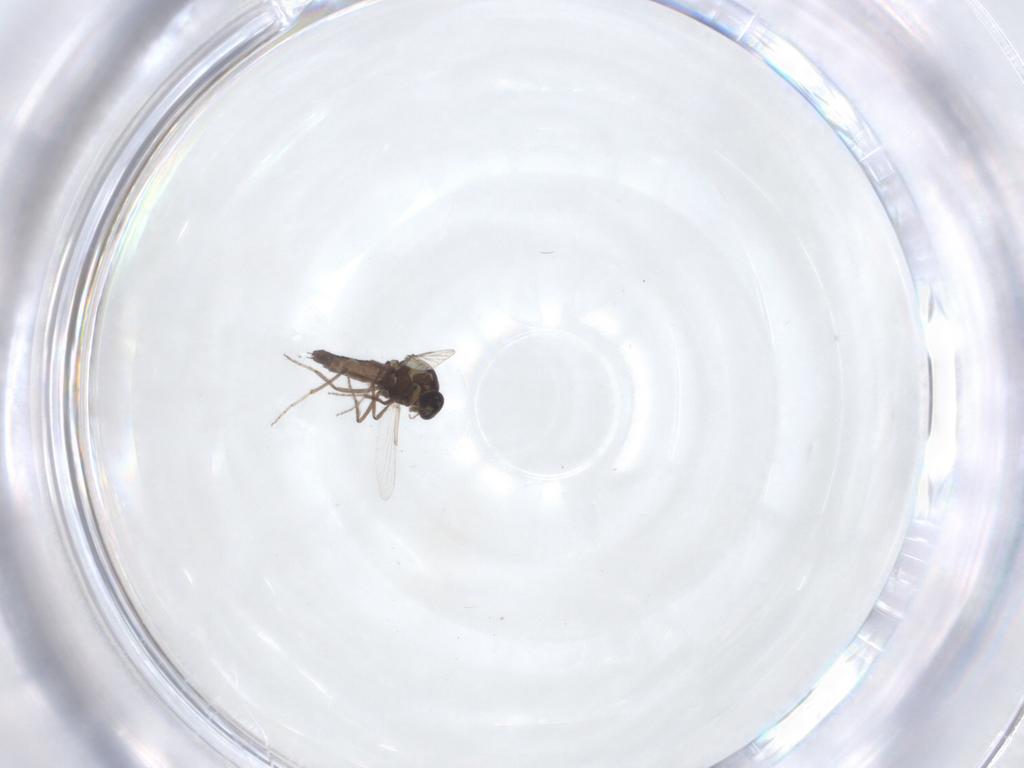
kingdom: Animalia
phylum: Arthropoda
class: Insecta
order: Diptera
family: Ceratopogonidae
